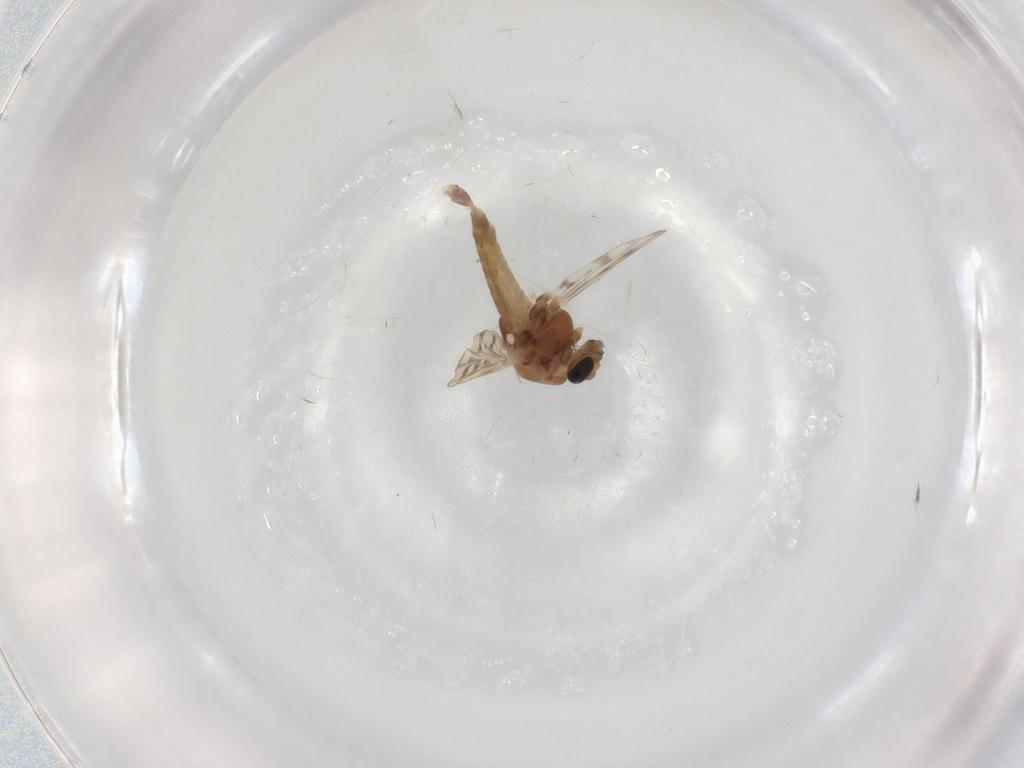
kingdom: Animalia
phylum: Arthropoda
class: Insecta
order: Diptera
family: Chironomidae
